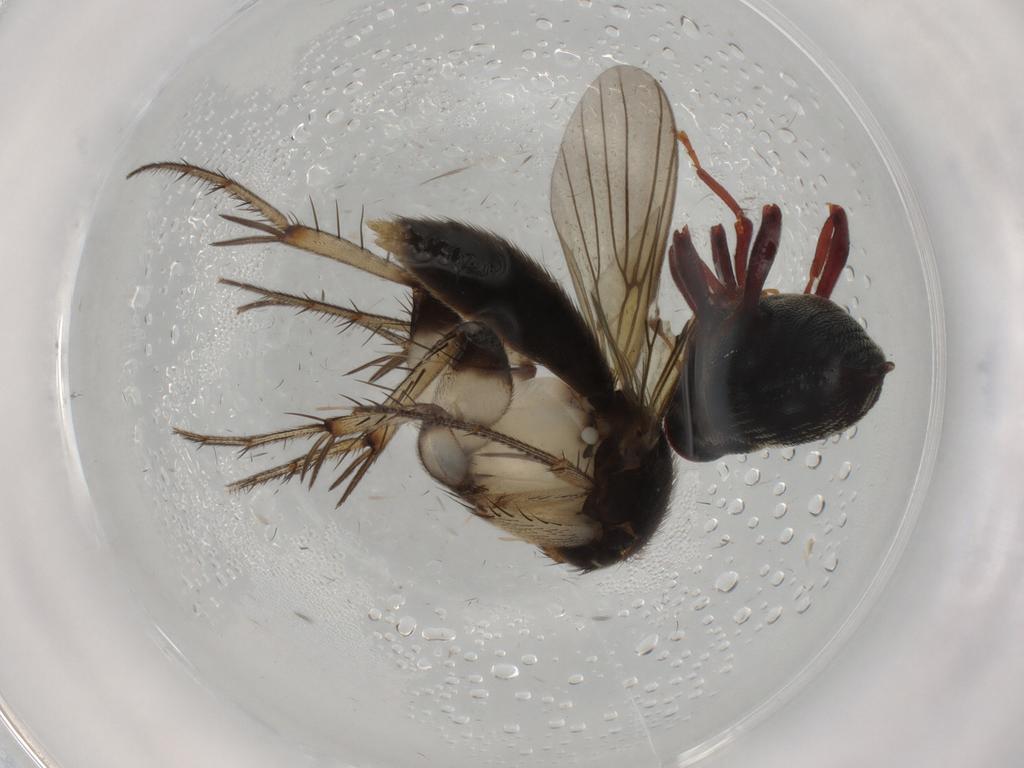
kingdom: Animalia
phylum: Arthropoda
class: Insecta
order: Diptera
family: Mycetophilidae
